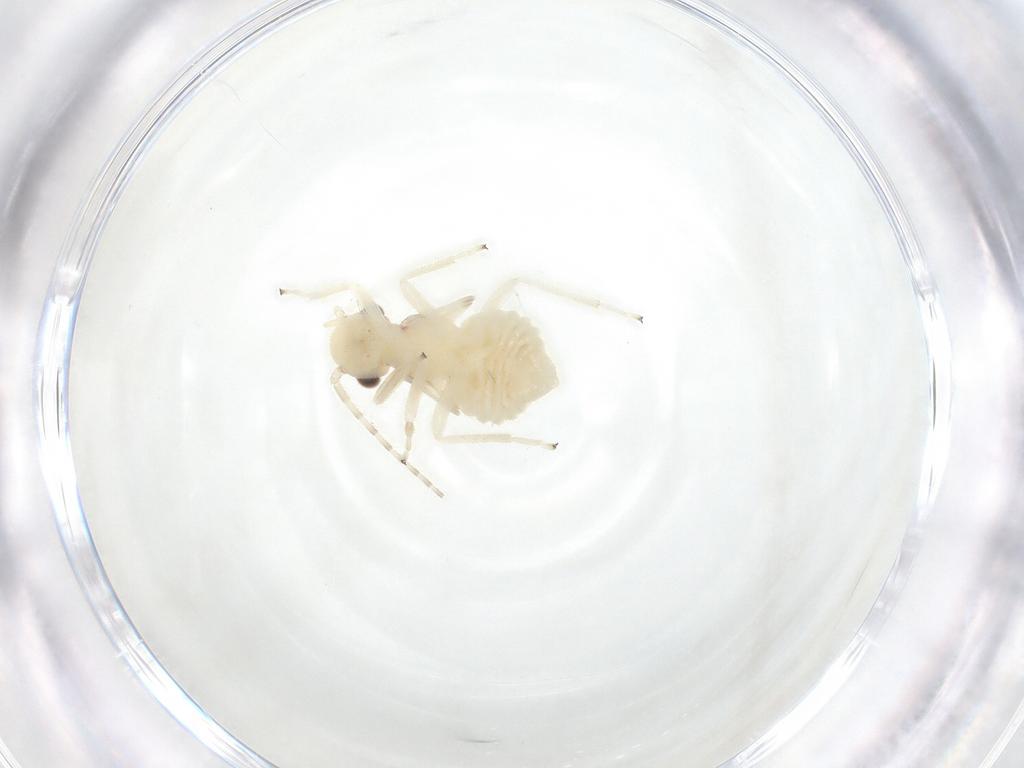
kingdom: Animalia
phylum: Arthropoda
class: Insecta
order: Psocodea
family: Amphipsocidae
